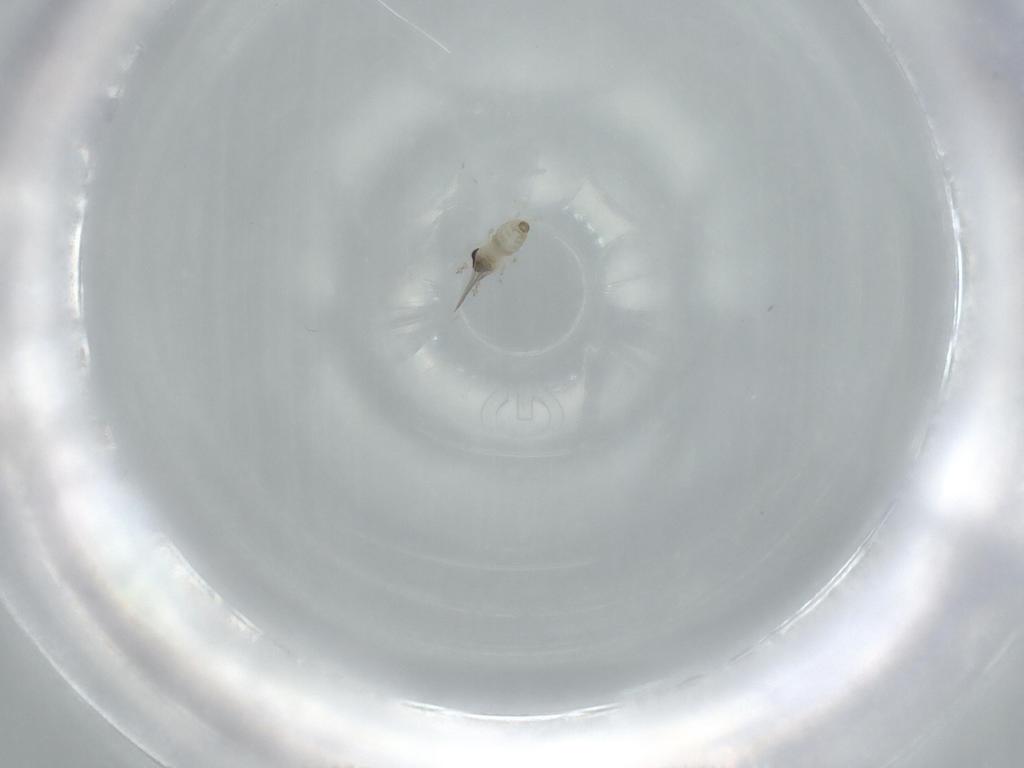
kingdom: Animalia
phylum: Arthropoda
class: Insecta
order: Diptera
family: Cecidomyiidae
